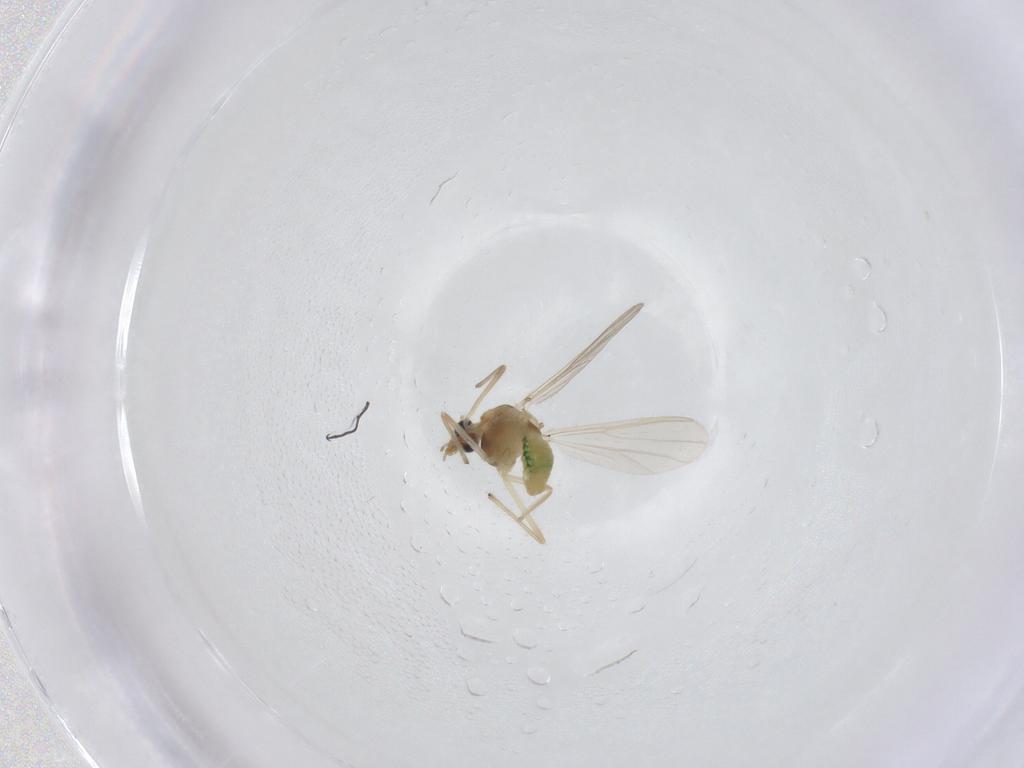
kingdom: Animalia
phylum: Arthropoda
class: Insecta
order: Diptera
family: Chironomidae
